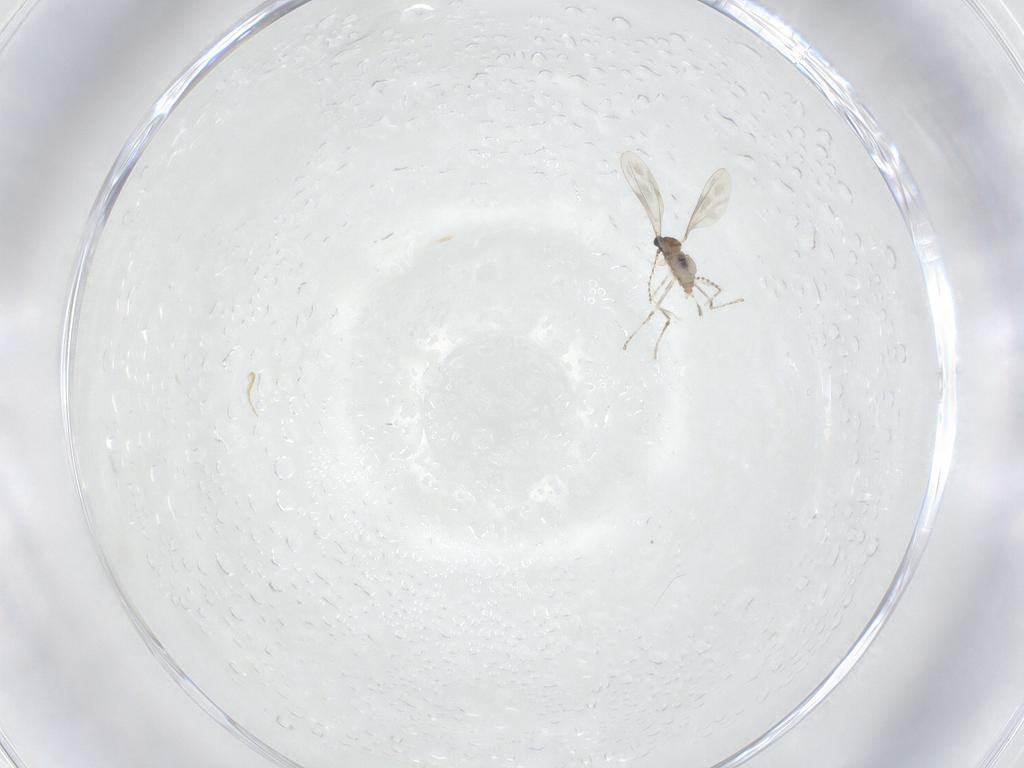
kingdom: Animalia
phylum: Arthropoda
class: Insecta
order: Diptera
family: Cecidomyiidae
